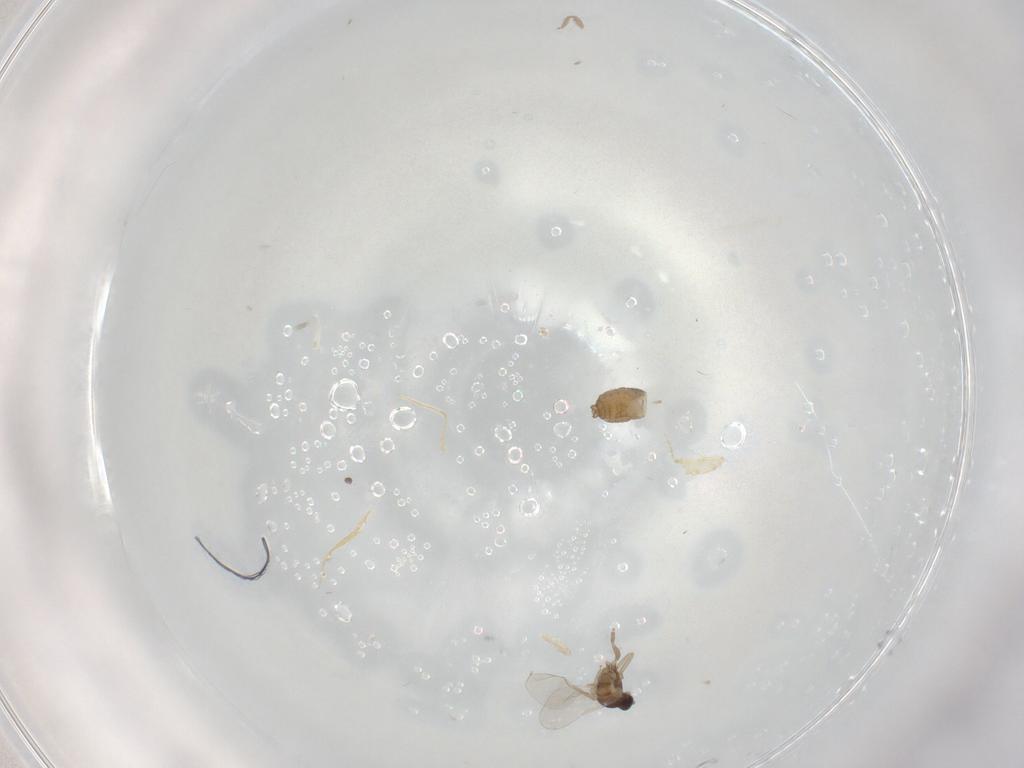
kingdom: Animalia
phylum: Arthropoda
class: Insecta
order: Diptera
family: Cecidomyiidae
